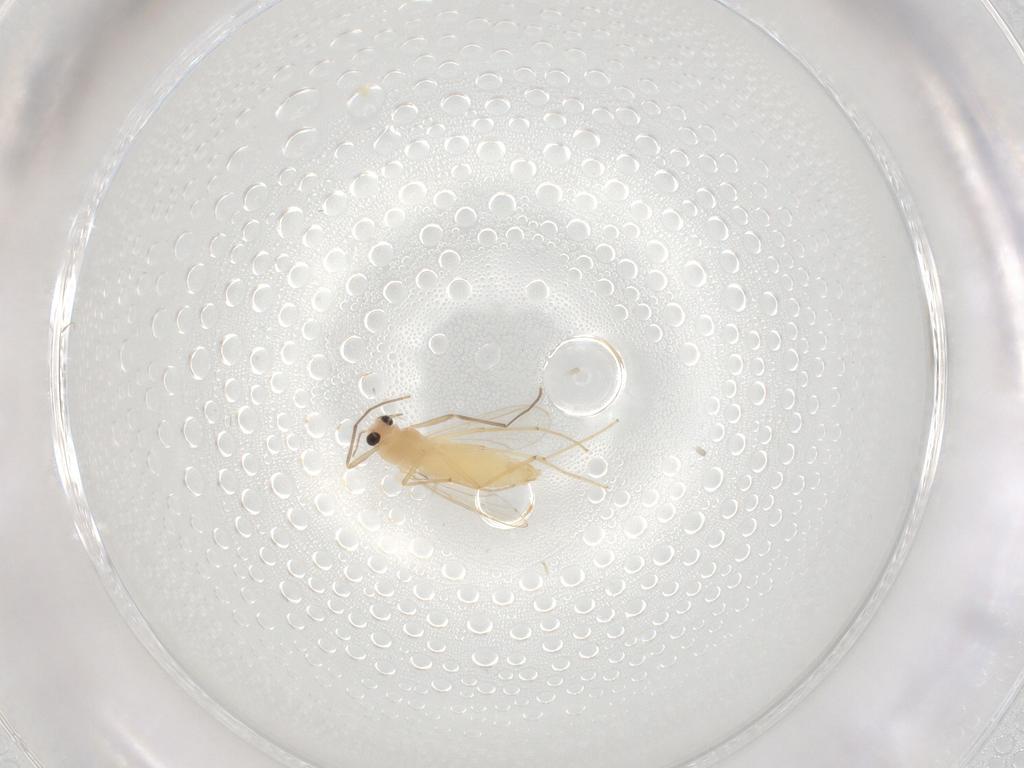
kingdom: Animalia
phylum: Arthropoda
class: Insecta
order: Diptera
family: Chironomidae
